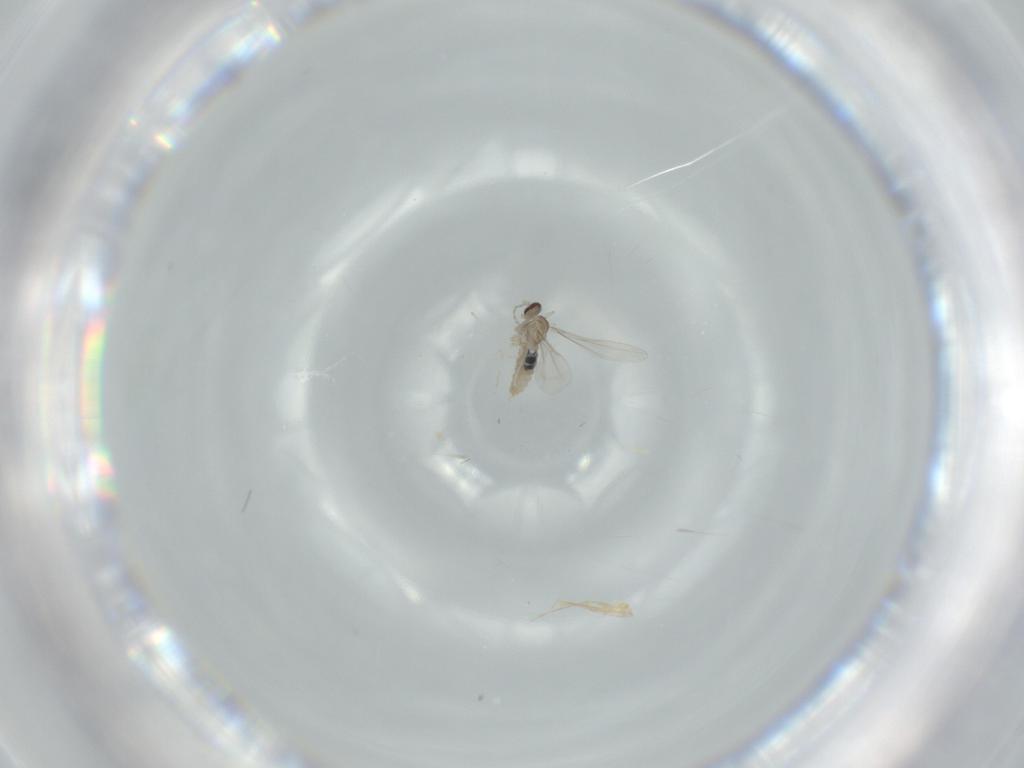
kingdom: Animalia
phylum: Arthropoda
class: Insecta
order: Diptera
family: Cecidomyiidae
